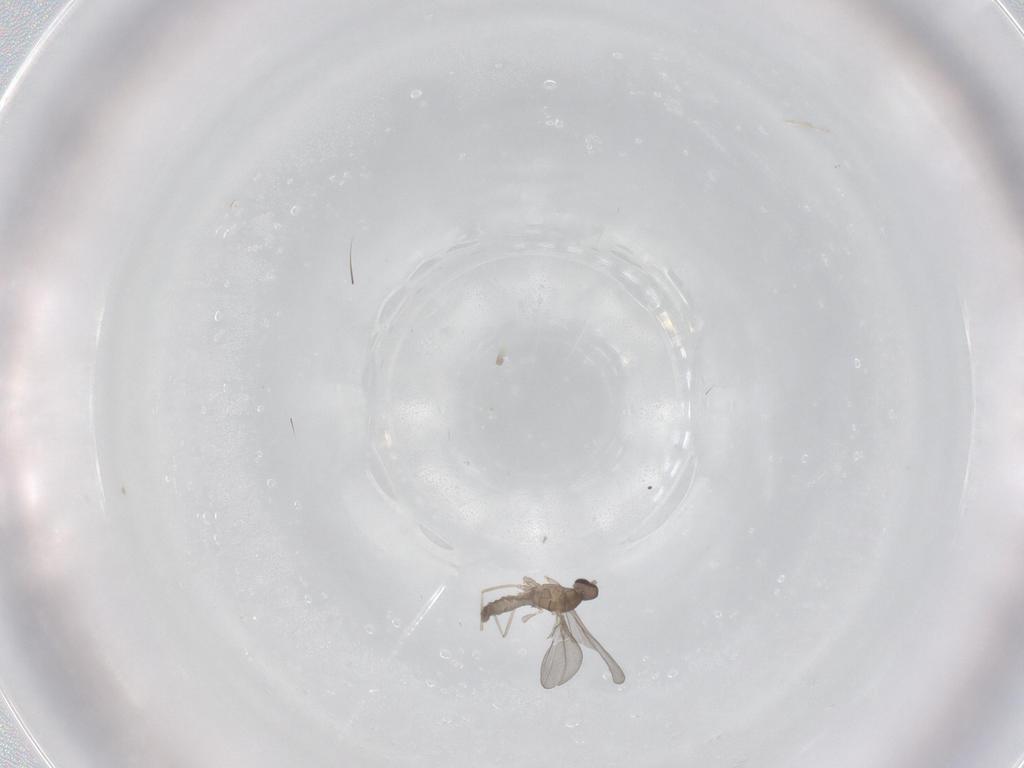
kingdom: Animalia
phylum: Arthropoda
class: Insecta
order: Diptera
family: Cecidomyiidae
